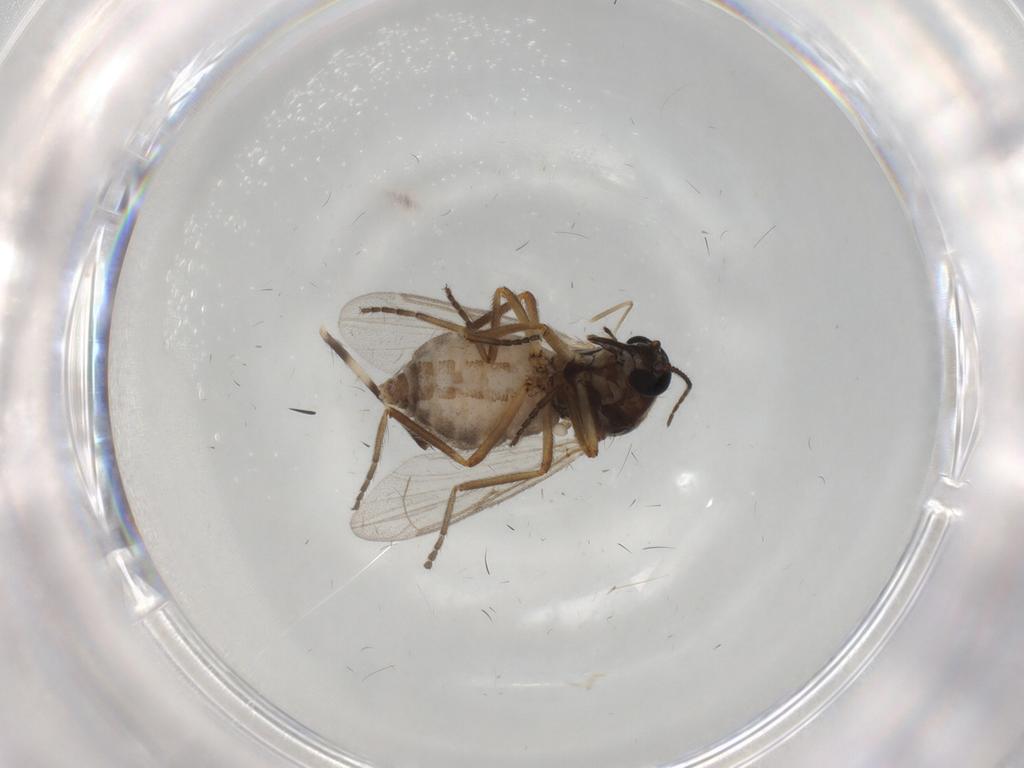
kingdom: Animalia
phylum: Arthropoda
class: Insecta
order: Diptera
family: Ceratopogonidae
